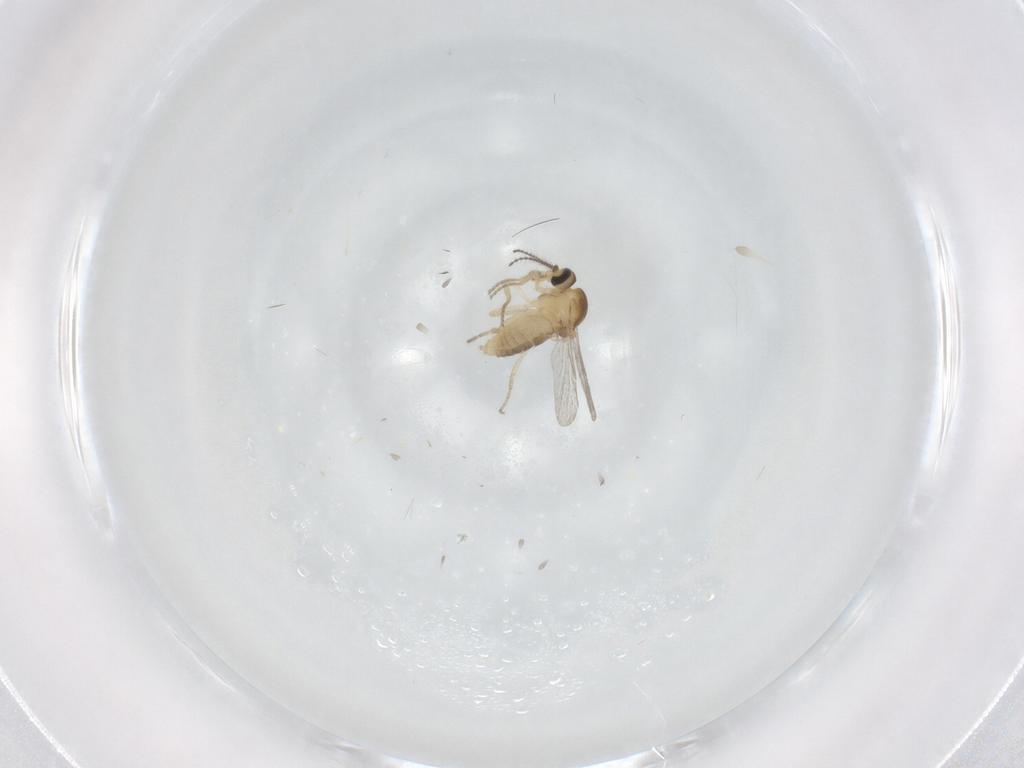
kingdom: Animalia
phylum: Arthropoda
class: Insecta
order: Diptera
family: Ceratopogonidae
